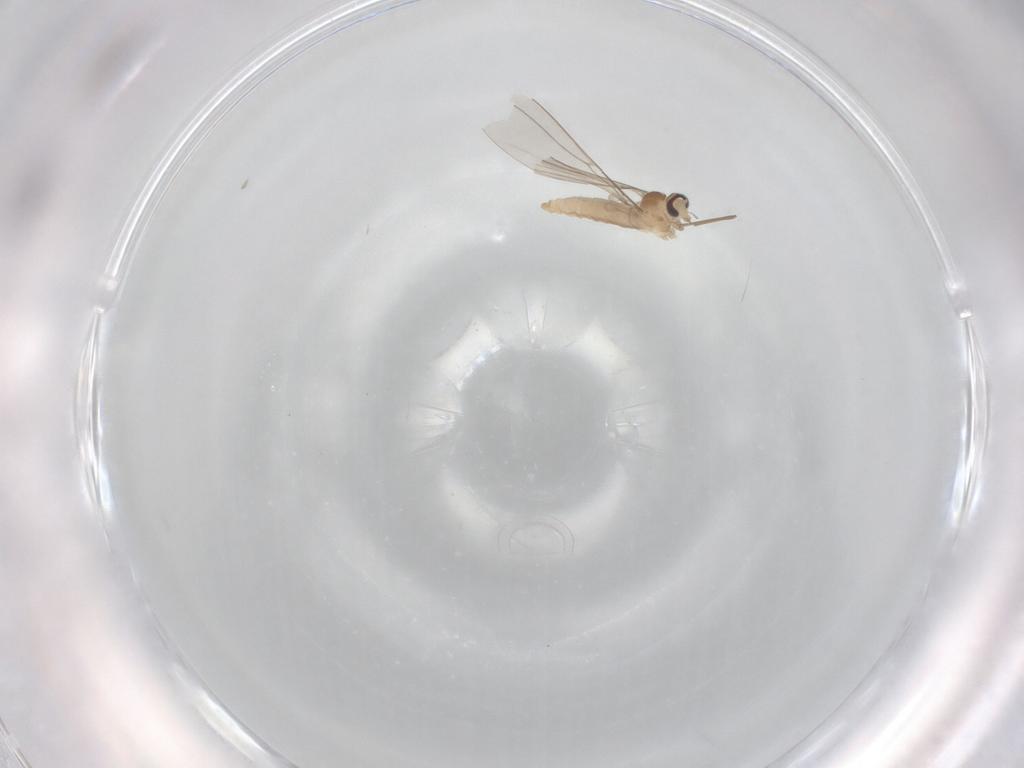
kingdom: Animalia
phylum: Arthropoda
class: Insecta
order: Diptera
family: Cecidomyiidae
